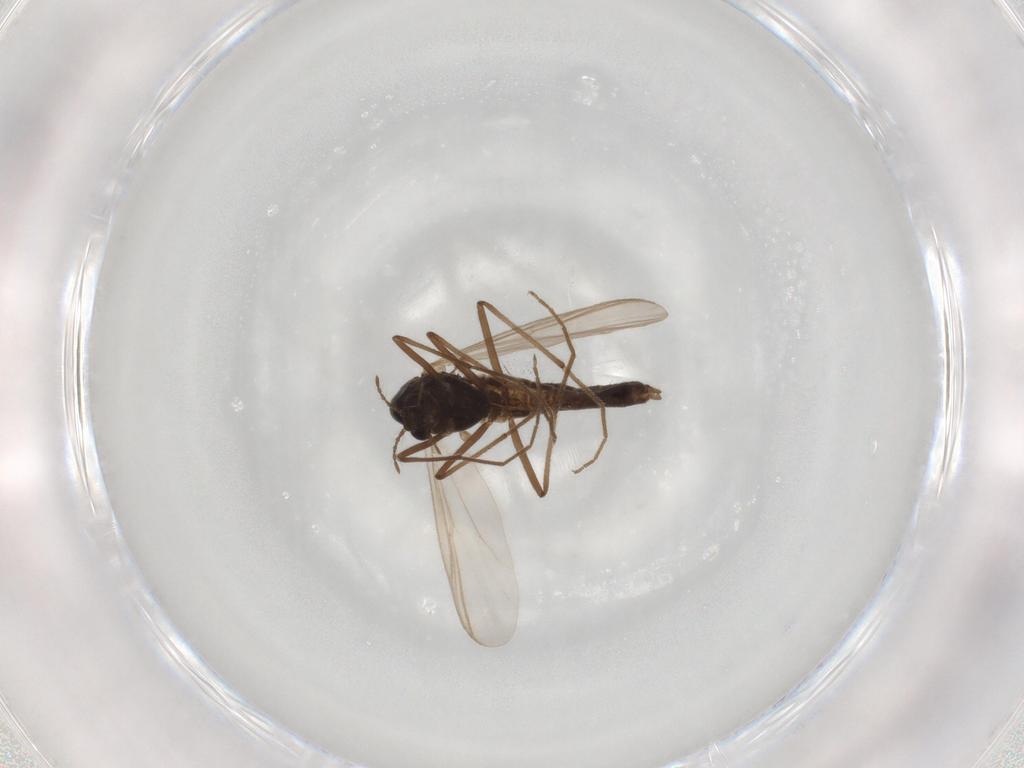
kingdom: Animalia
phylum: Arthropoda
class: Insecta
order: Diptera
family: Chironomidae
